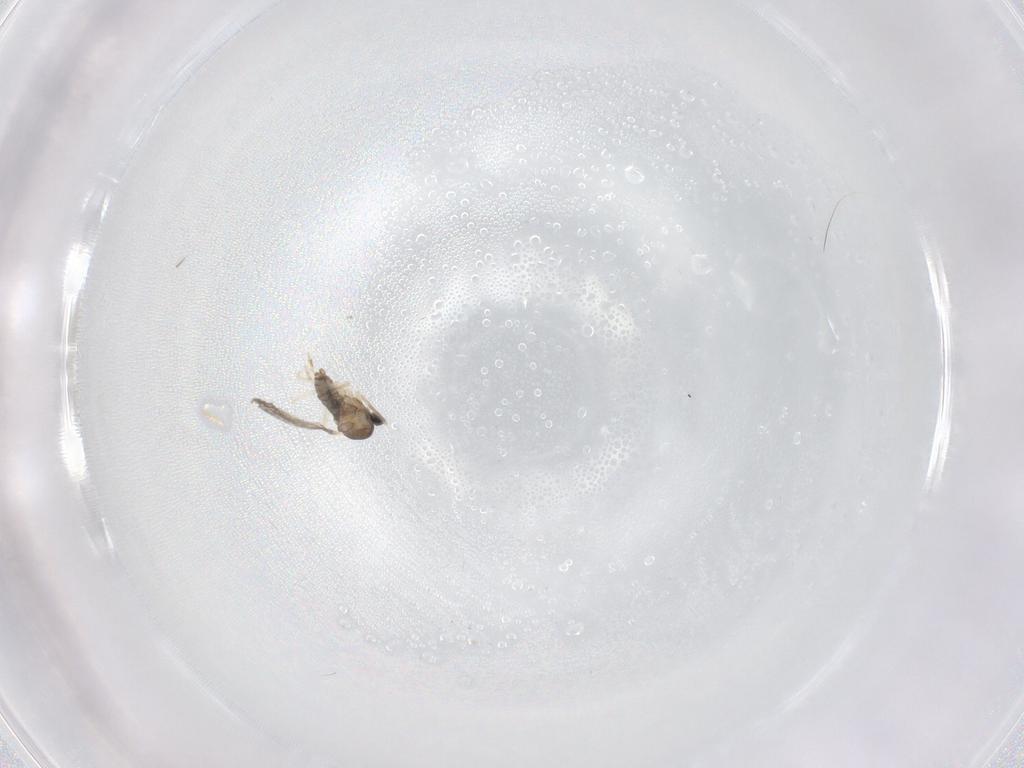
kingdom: Animalia
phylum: Arthropoda
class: Insecta
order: Diptera
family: Cecidomyiidae
